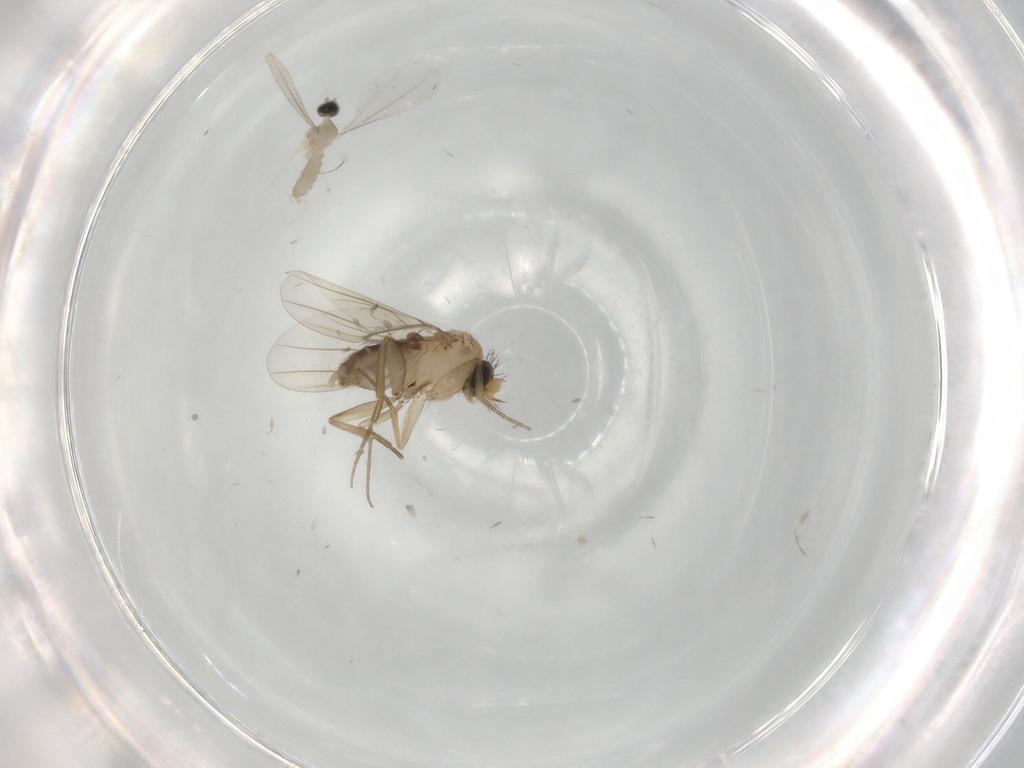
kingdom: Animalia
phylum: Arthropoda
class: Insecta
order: Diptera
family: Phoridae
